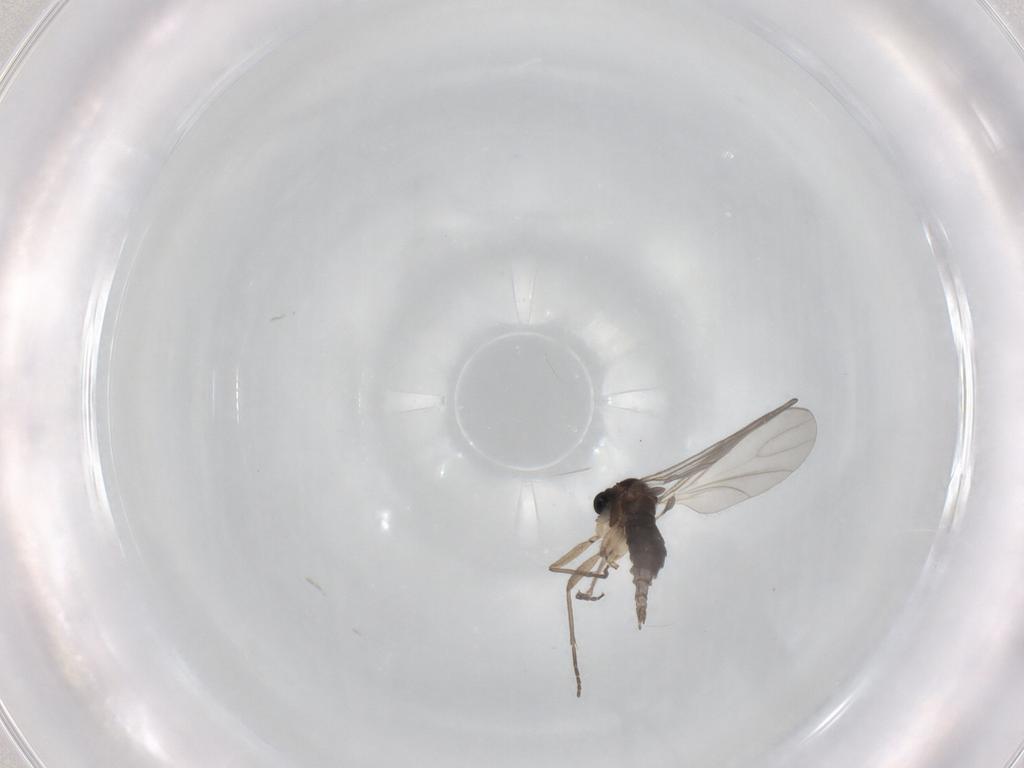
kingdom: Animalia
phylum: Arthropoda
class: Insecta
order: Diptera
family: Sciaridae
